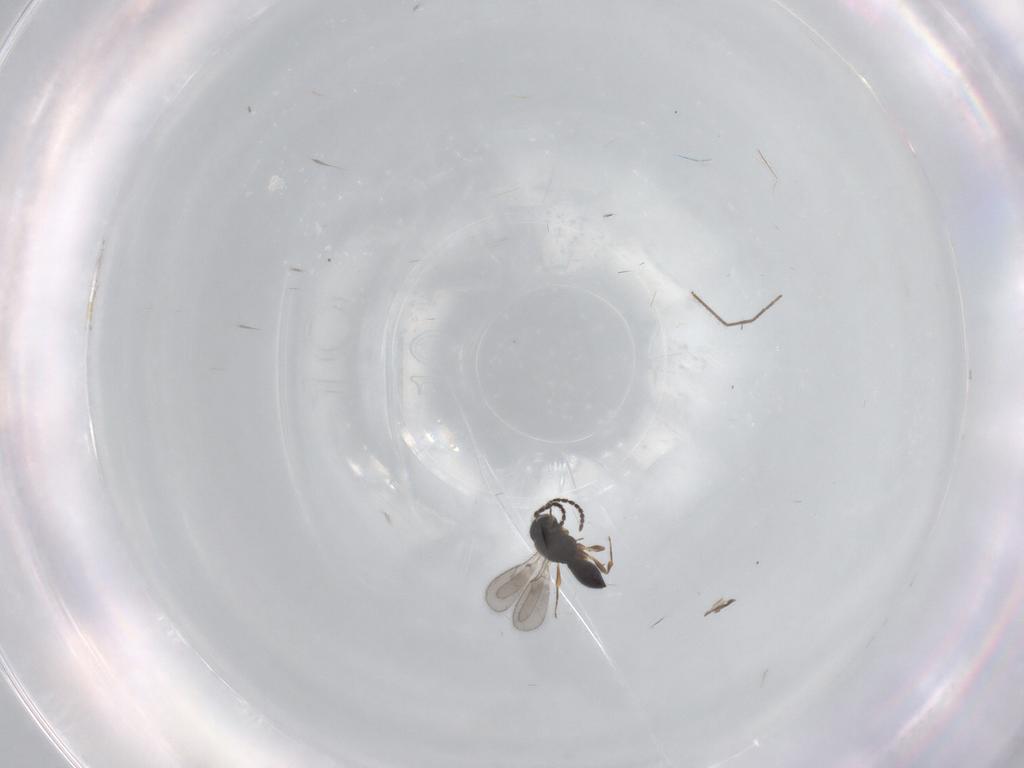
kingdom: Animalia
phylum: Arthropoda
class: Insecta
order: Hymenoptera
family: Scelionidae
